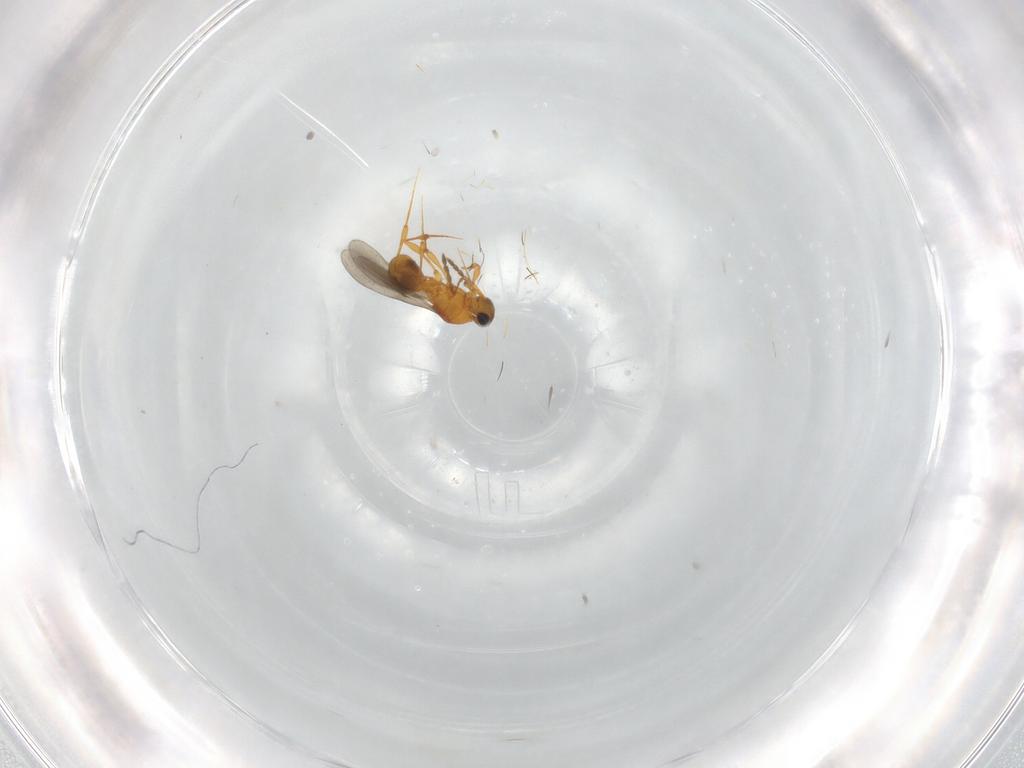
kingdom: Animalia
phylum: Arthropoda
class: Insecta
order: Hymenoptera
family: Platygastridae
